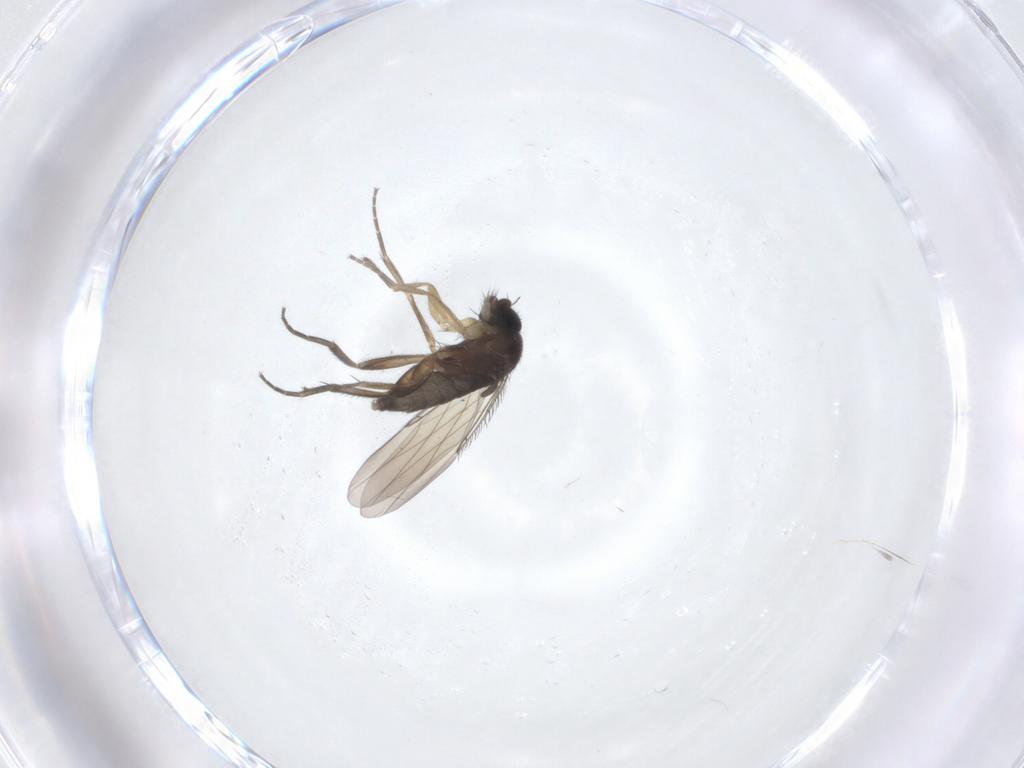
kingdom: Animalia
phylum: Arthropoda
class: Insecta
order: Diptera
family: Phoridae
